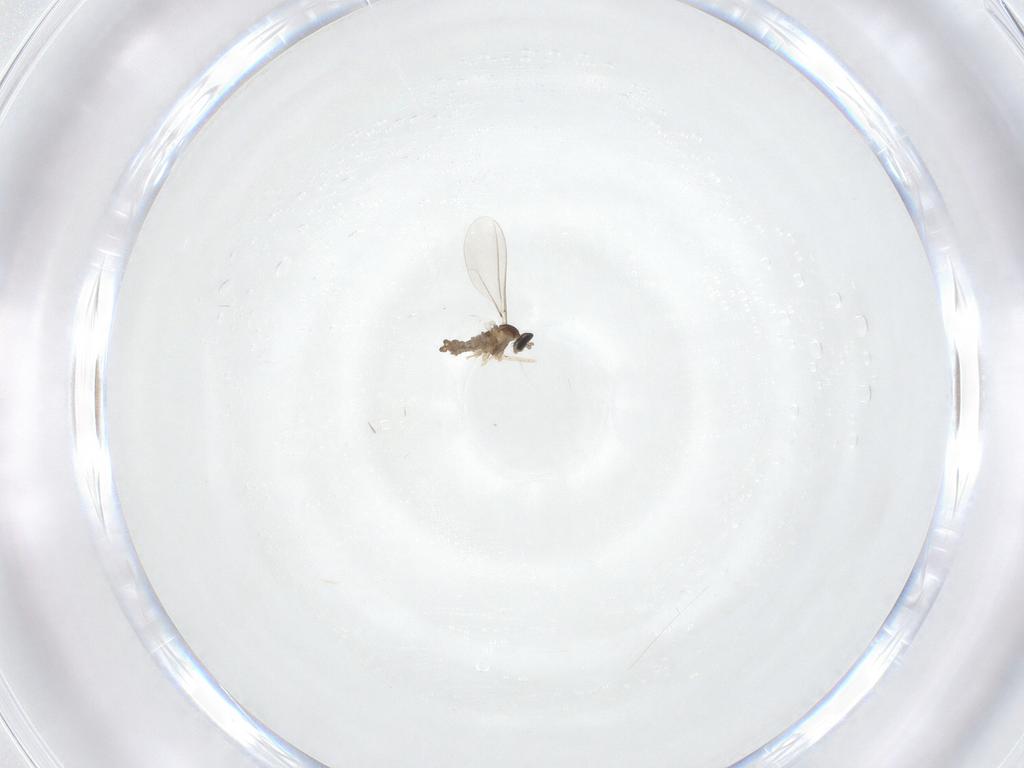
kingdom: Animalia
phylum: Arthropoda
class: Insecta
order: Diptera
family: Cecidomyiidae
